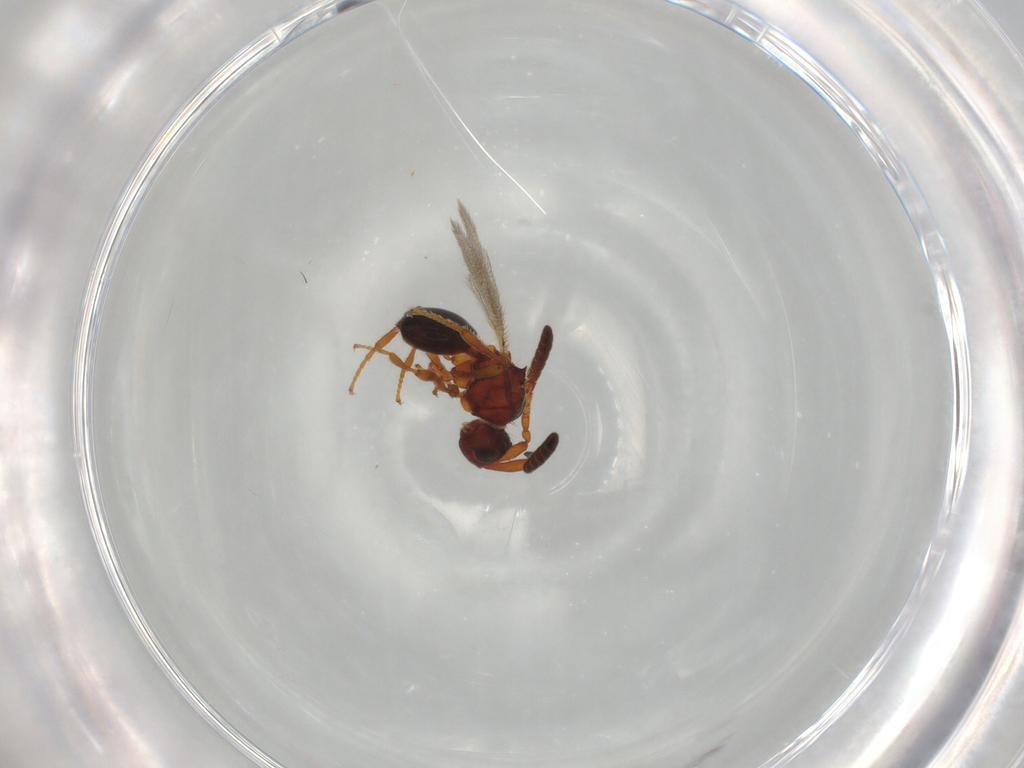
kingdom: Animalia
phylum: Arthropoda
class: Insecta
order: Hymenoptera
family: Diapriidae
